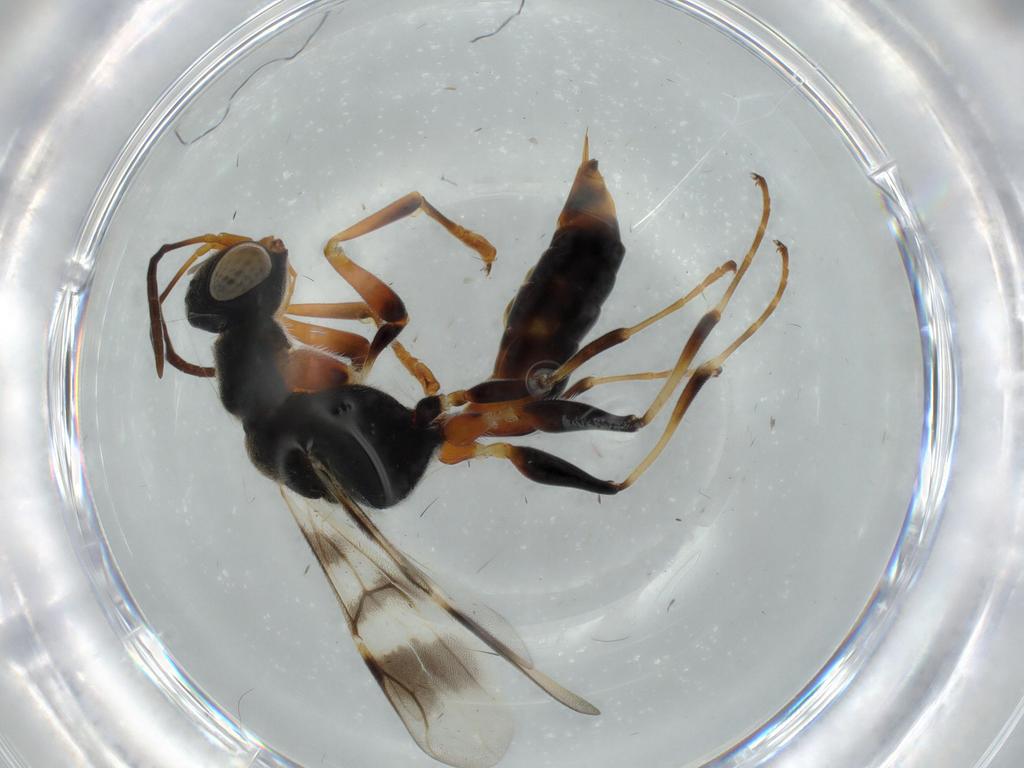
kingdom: Animalia
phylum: Arthropoda
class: Insecta
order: Hymenoptera
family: Dryinidae
